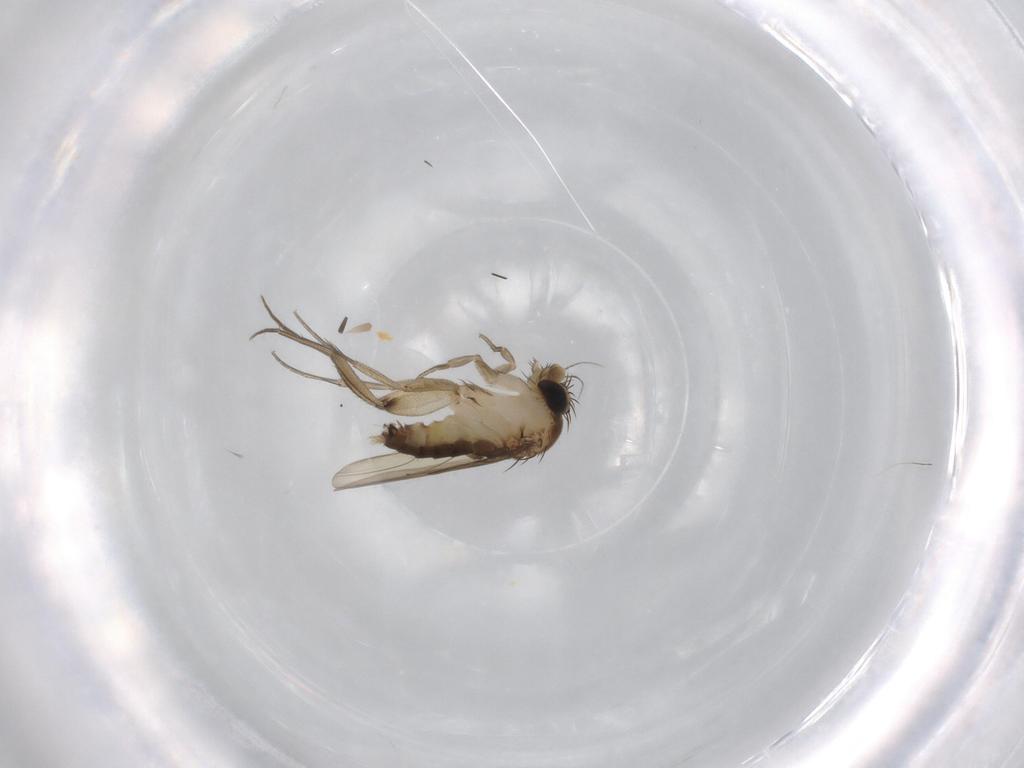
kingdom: Animalia
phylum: Arthropoda
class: Insecta
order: Diptera
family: Phoridae
